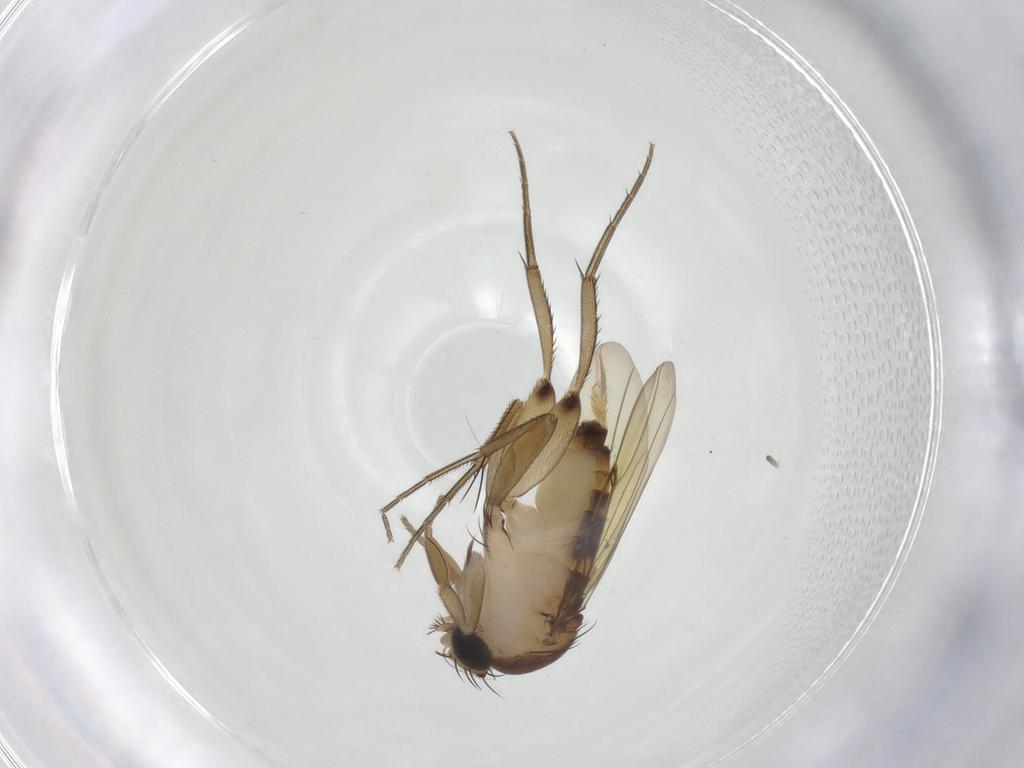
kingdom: Animalia
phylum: Arthropoda
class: Insecta
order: Diptera
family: Phoridae
